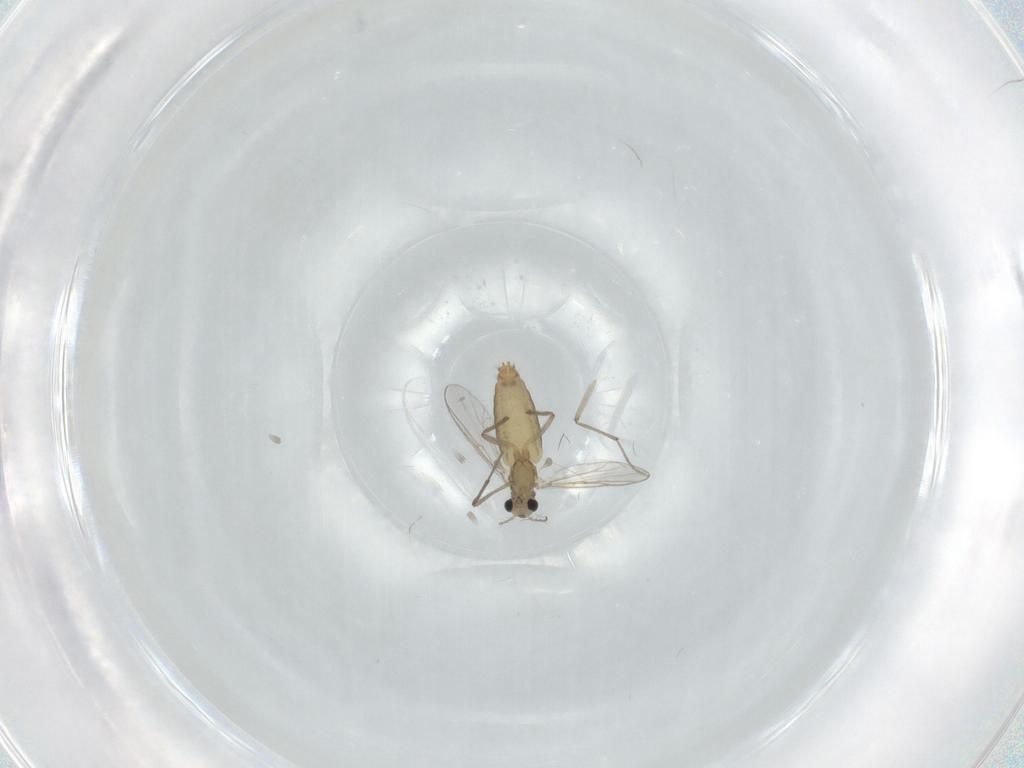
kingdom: Animalia
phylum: Arthropoda
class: Insecta
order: Diptera
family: Chironomidae
